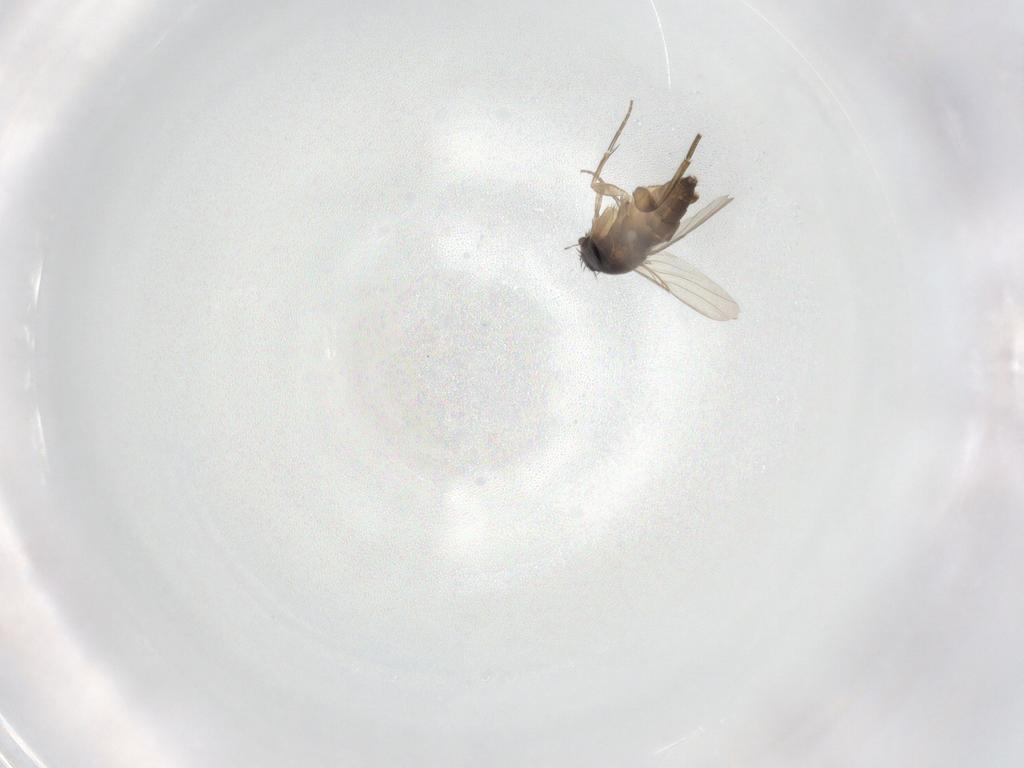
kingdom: Animalia
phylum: Arthropoda
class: Insecta
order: Diptera
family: Phoridae
